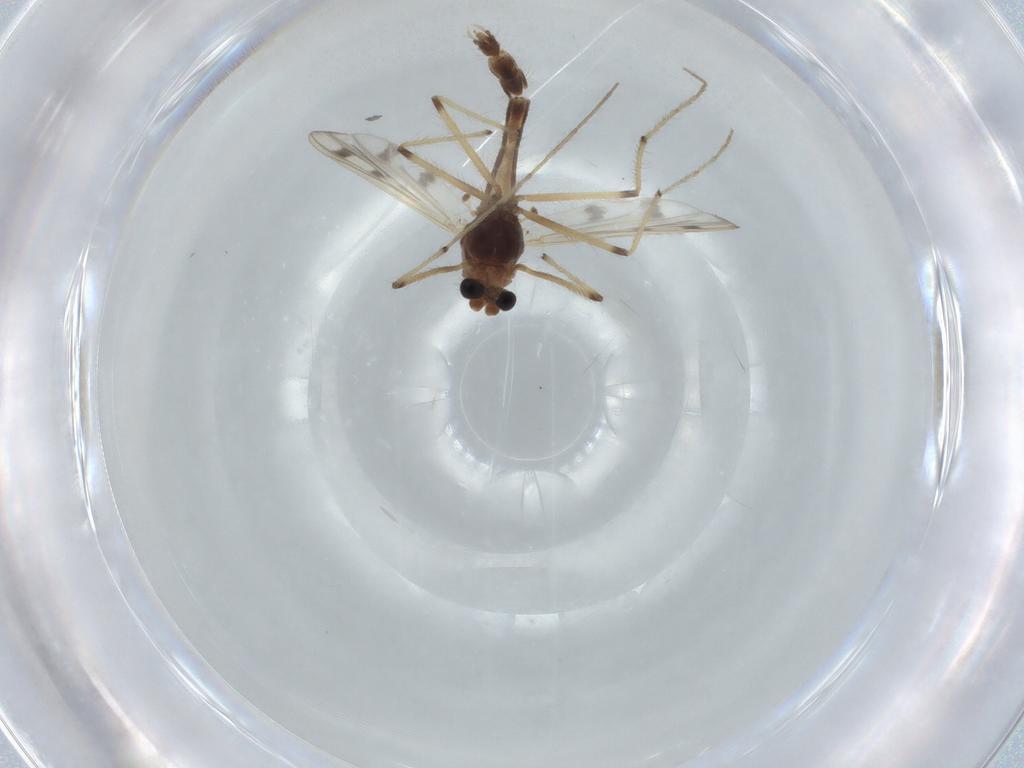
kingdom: Animalia
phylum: Arthropoda
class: Insecta
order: Diptera
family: Chironomidae
